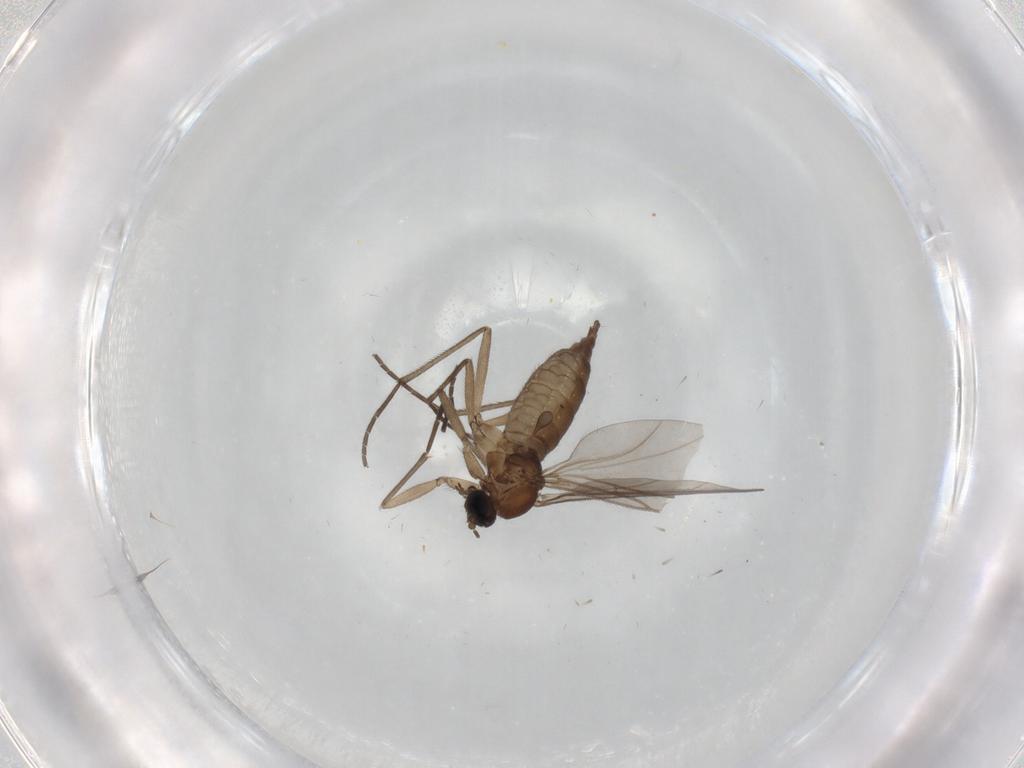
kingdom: Animalia
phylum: Arthropoda
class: Insecta
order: Diptera
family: Sciaridae
